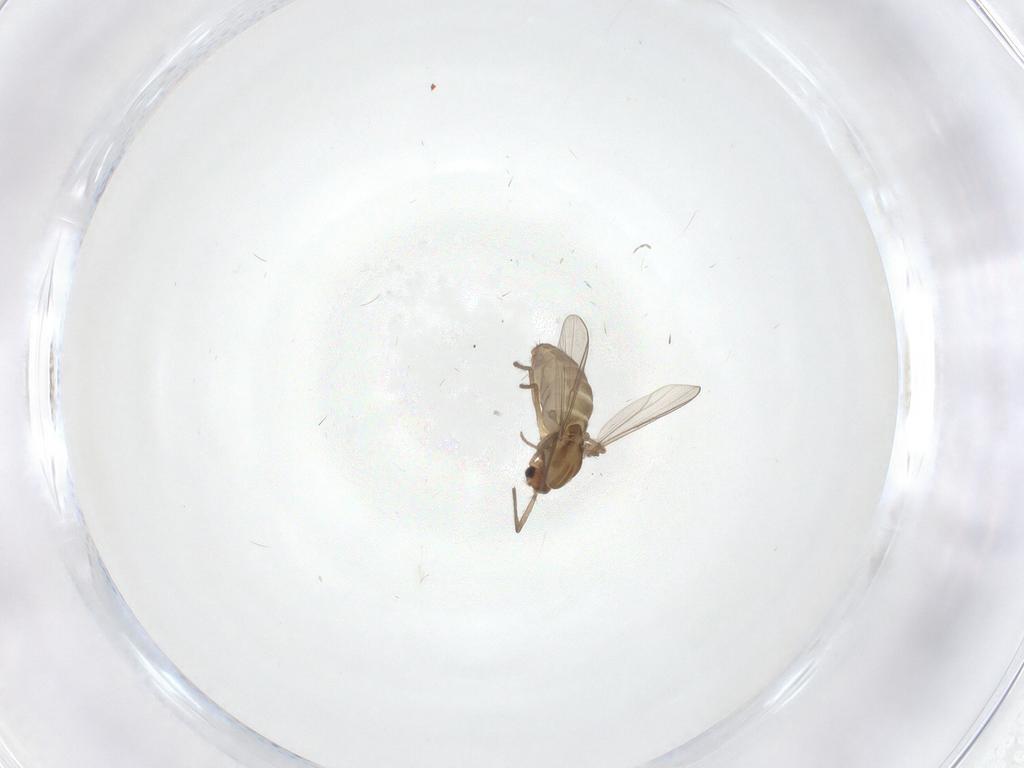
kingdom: Animalia
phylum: Arthropoda
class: Insecta
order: Diptera
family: Chironomidae
